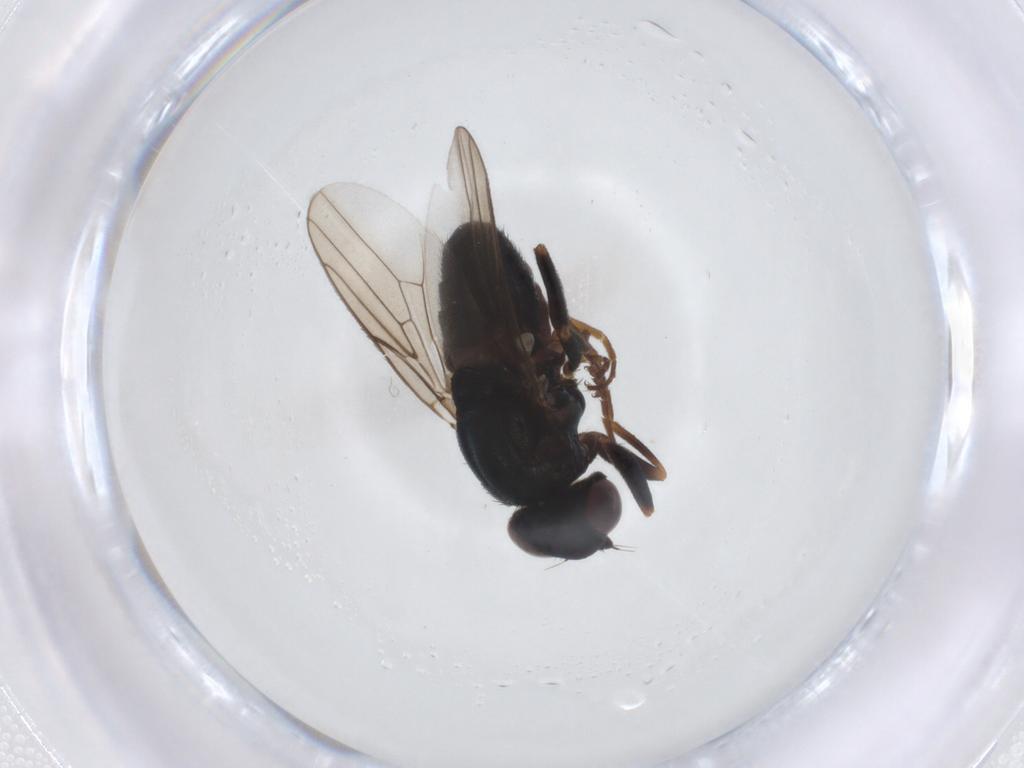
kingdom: Animalia
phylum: Arthropoda
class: Insecta
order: Diptera
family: Chloropidae
